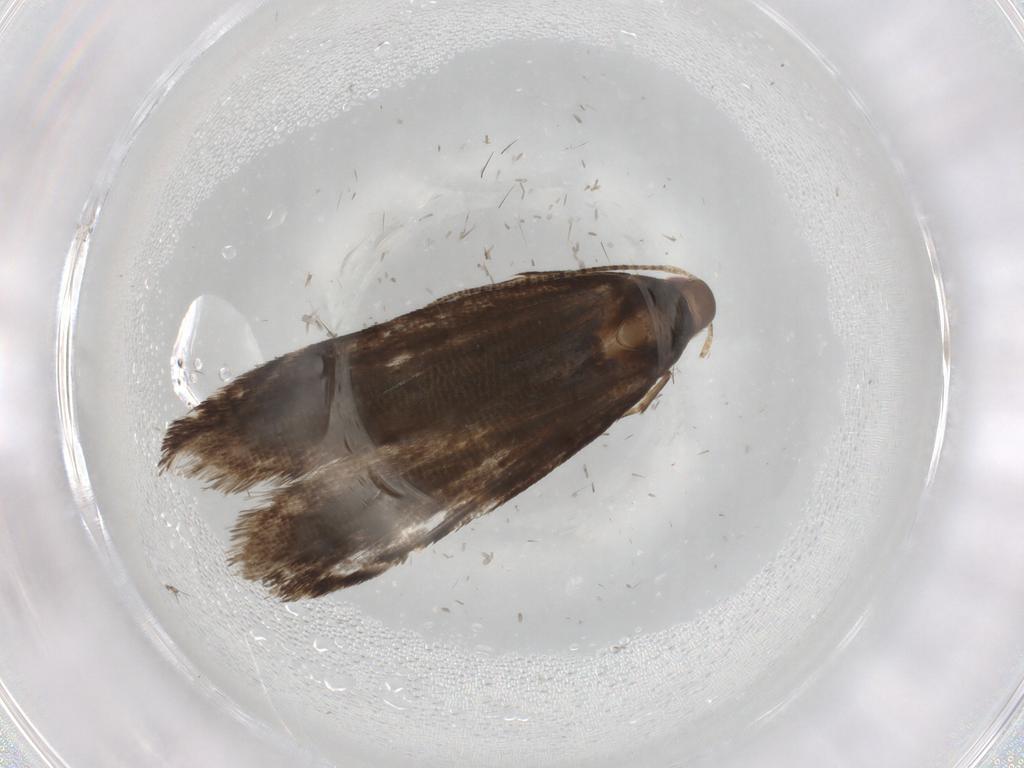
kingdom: Animalia
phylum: Arthropoda
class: Insecta
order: Lepidoptera
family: Gelechiidae
